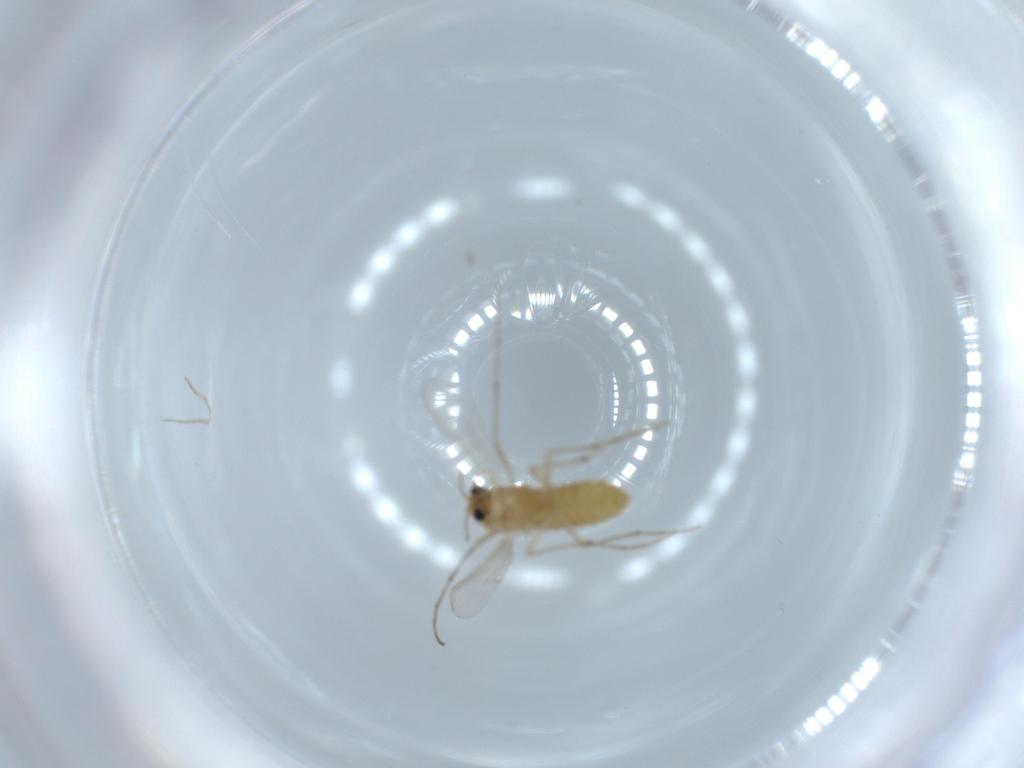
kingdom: Animalia
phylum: Arthropoda
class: Insecta
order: Diptera
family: Chironomidae
